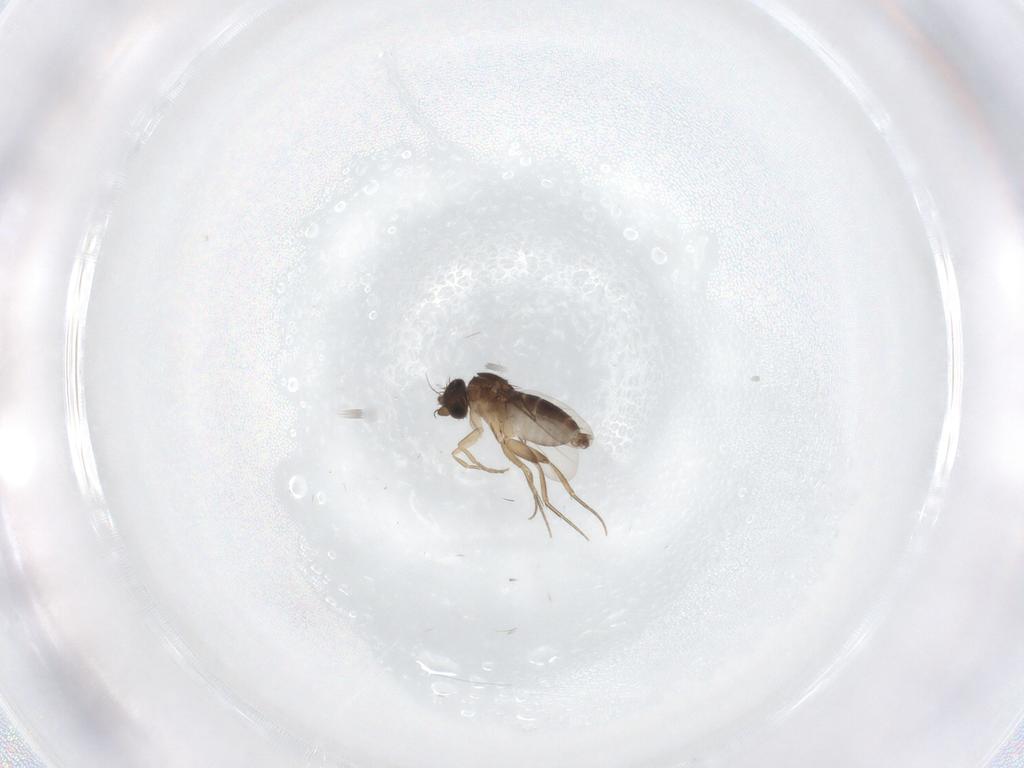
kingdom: Animalia
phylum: Arthropoda
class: Insecta
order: Diptera
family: Phoridae
